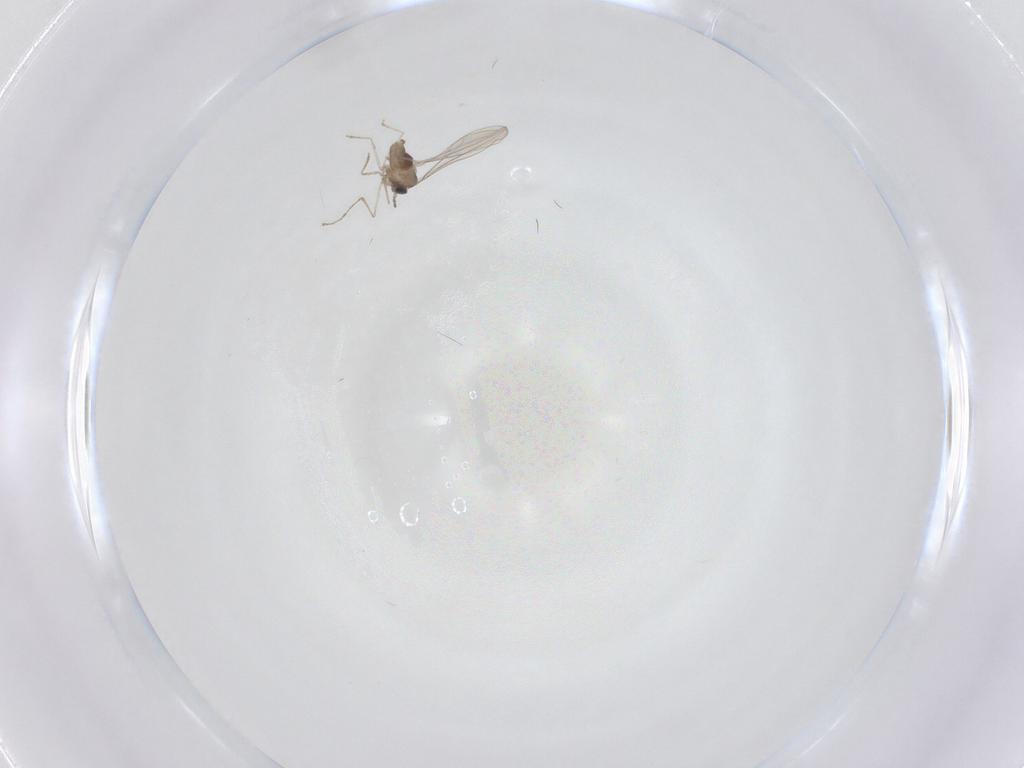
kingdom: Animalia
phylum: Arthropoda
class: Insecta
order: Diptera
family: Cecidomyiidae
